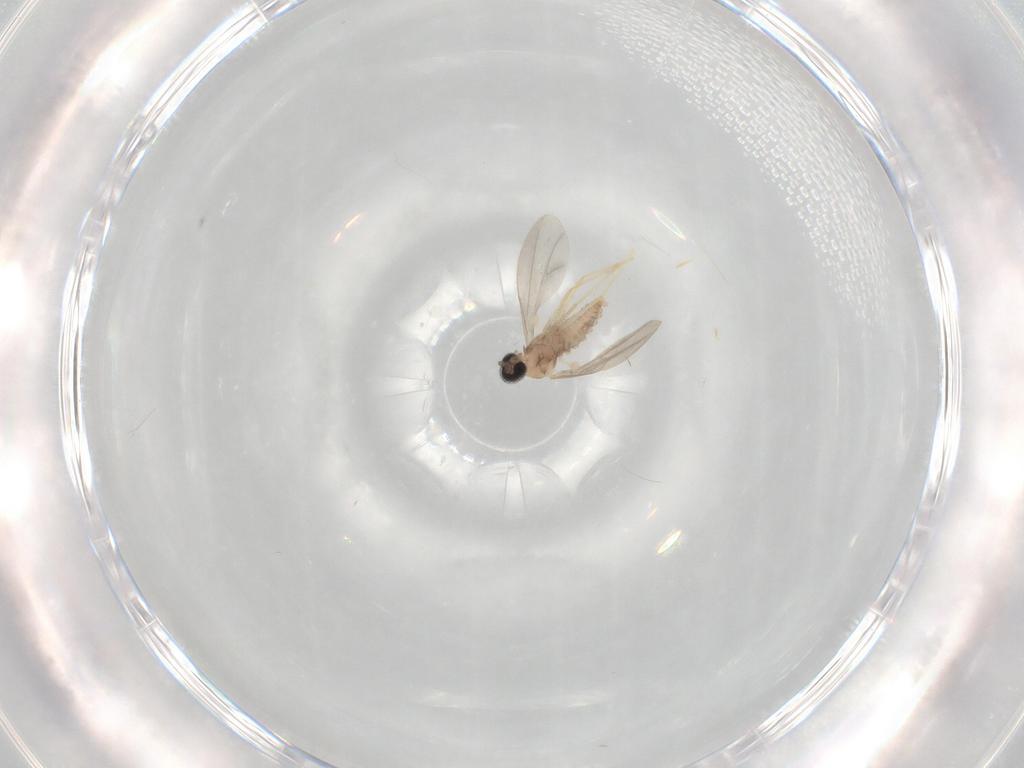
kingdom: Animalia
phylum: Arthropoda
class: Insecta
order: Diptera
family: Cecidomyiidae
